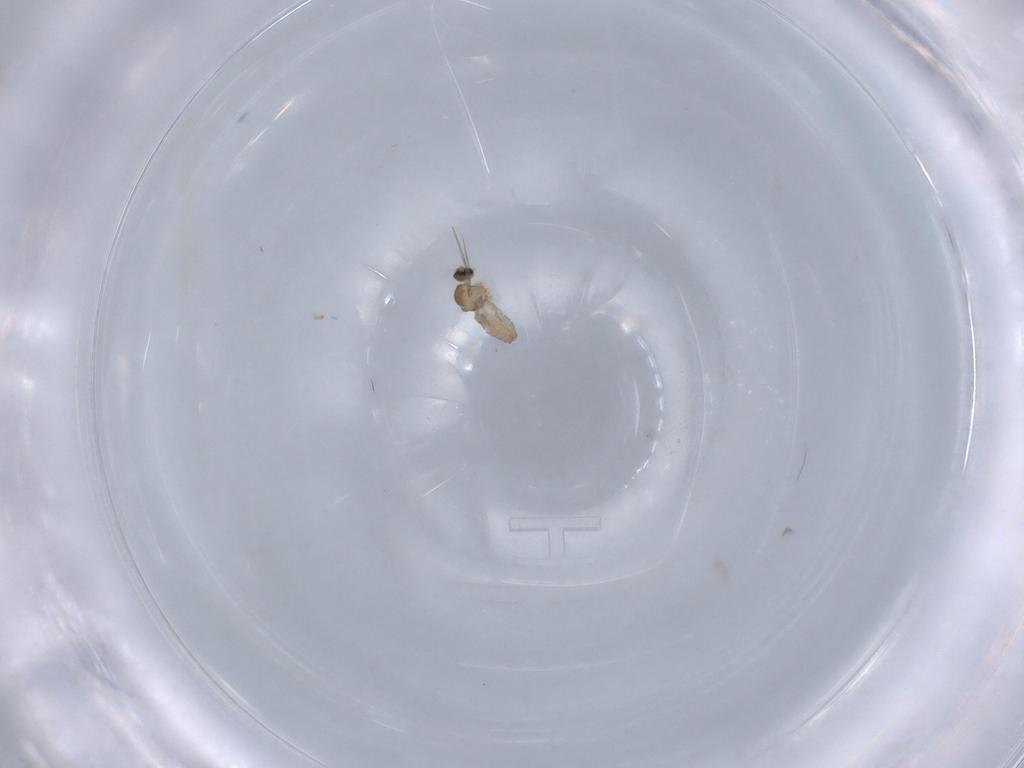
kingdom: Animalia
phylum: Arthropoda
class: Insecta
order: Diptera
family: Cecidomyiidae
